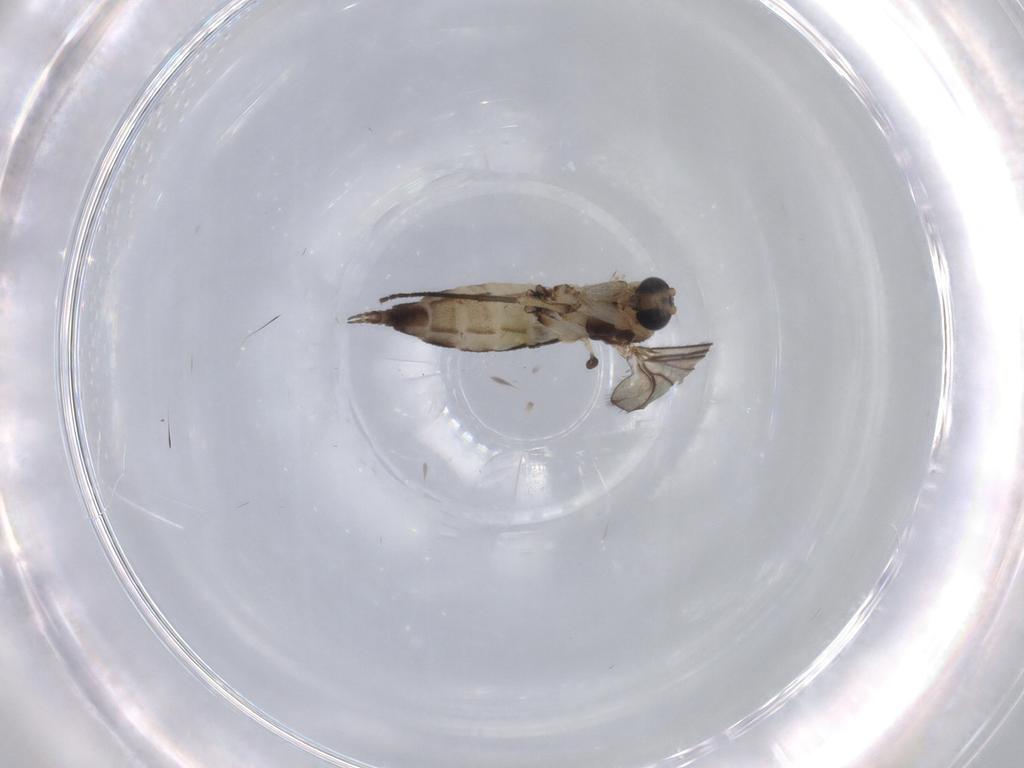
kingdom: Animalia
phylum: Arthropoda
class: Insecta
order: Diptera
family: Sciaridae
